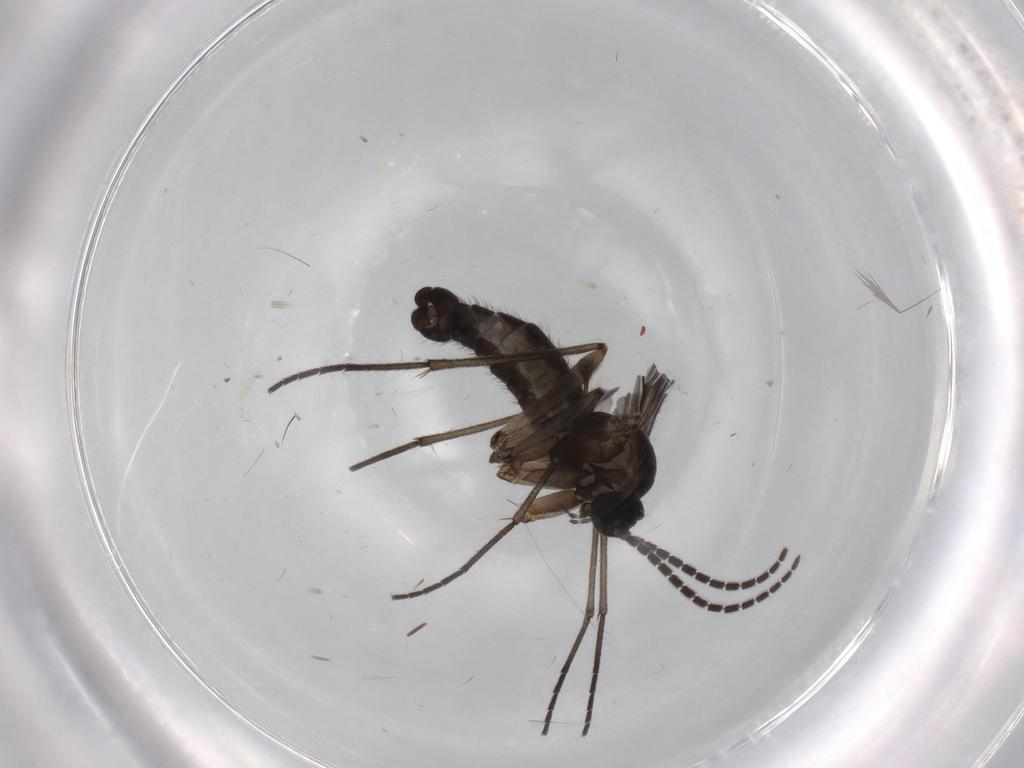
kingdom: Animalia
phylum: Arthropoda
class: Insecta
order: Diptera
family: Sciaridae
